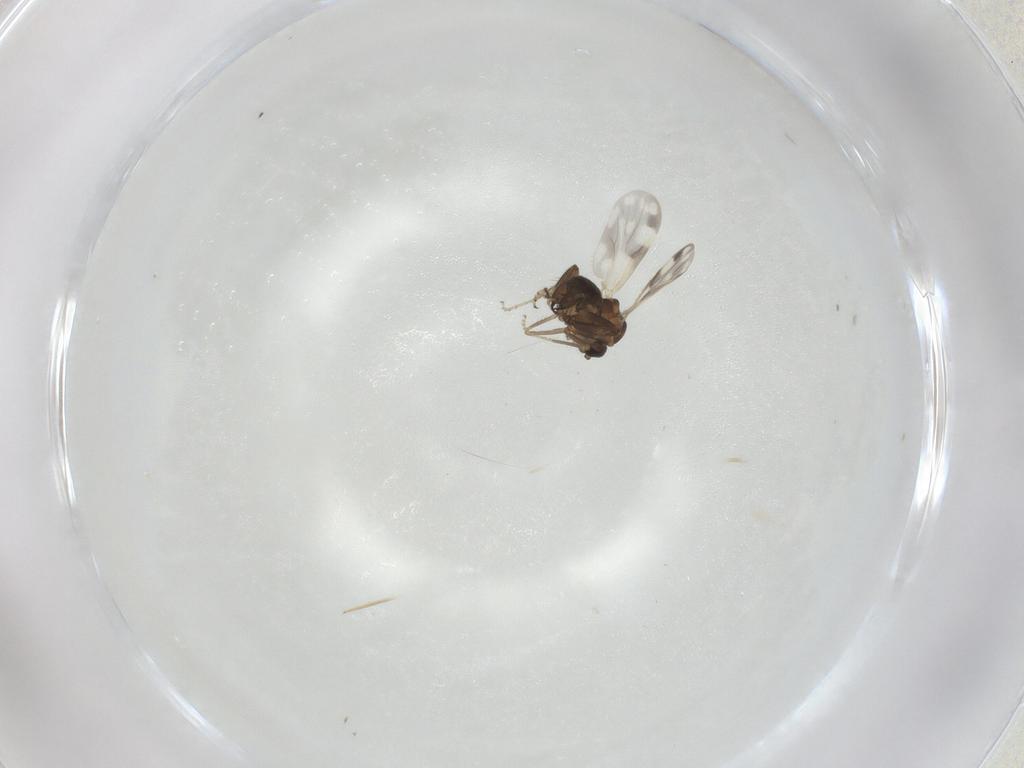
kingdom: Animalia
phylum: Arthropoda
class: Insecta
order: Diptera
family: Ceratopogonidae
